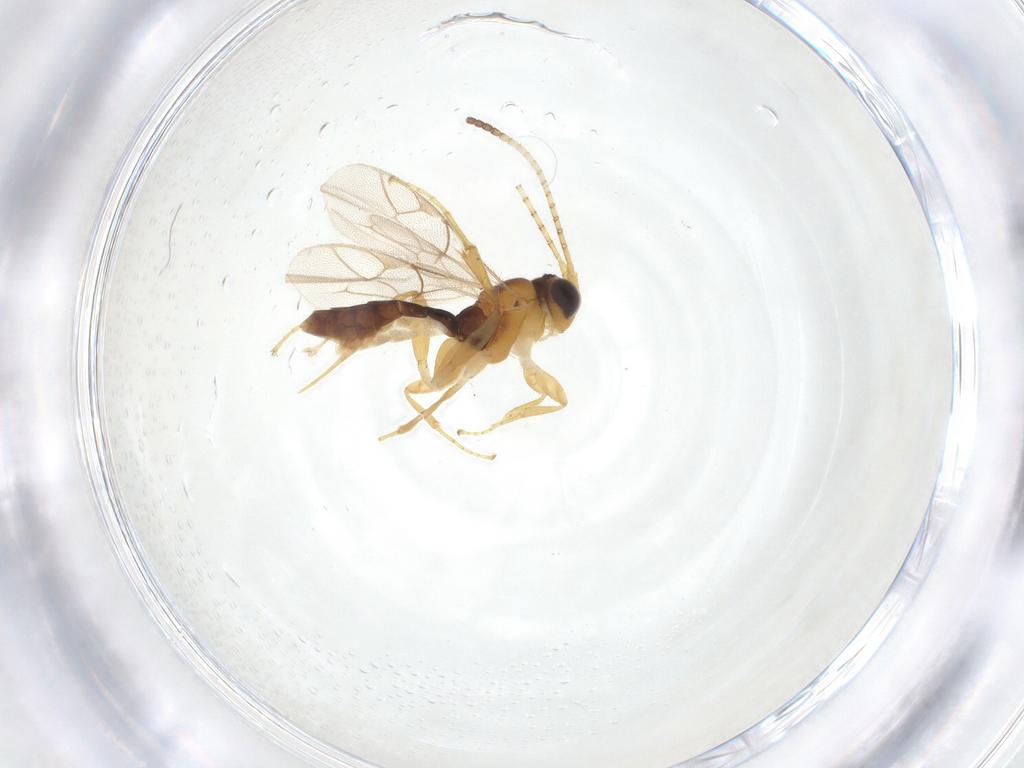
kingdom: Animalia
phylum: Arthropoda
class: Insecta
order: Hymenoptera
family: Ichneumonidae
